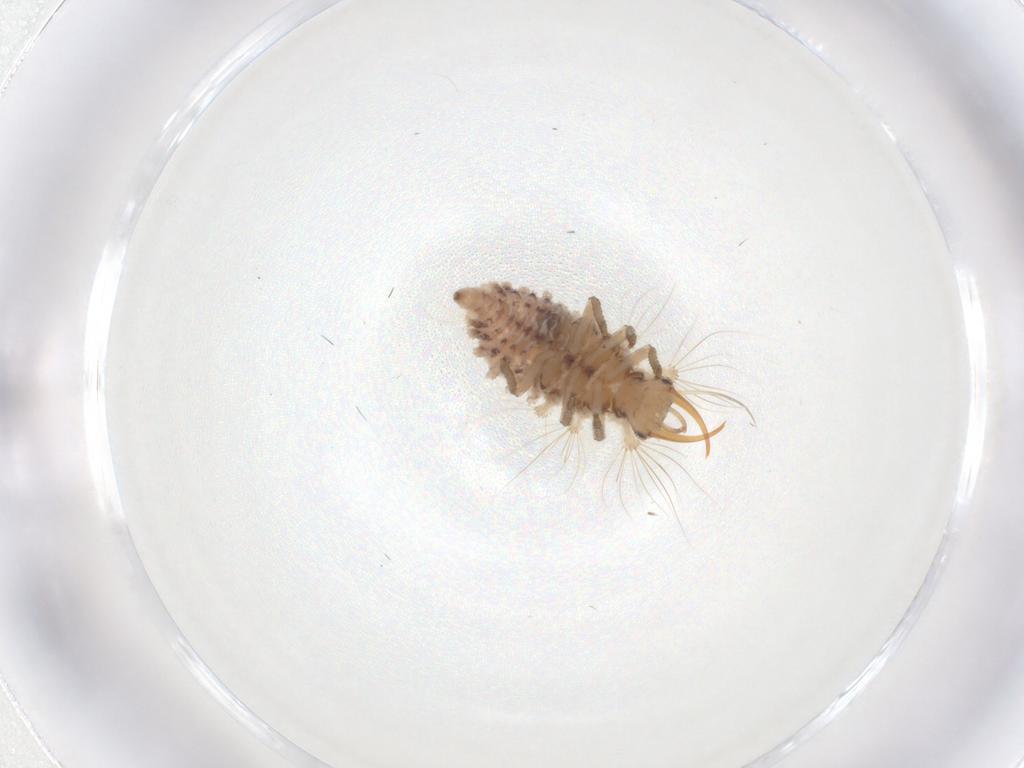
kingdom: Animalia
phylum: Arthropoda
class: Insecta
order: Neuroptera
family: Chrysopidae
